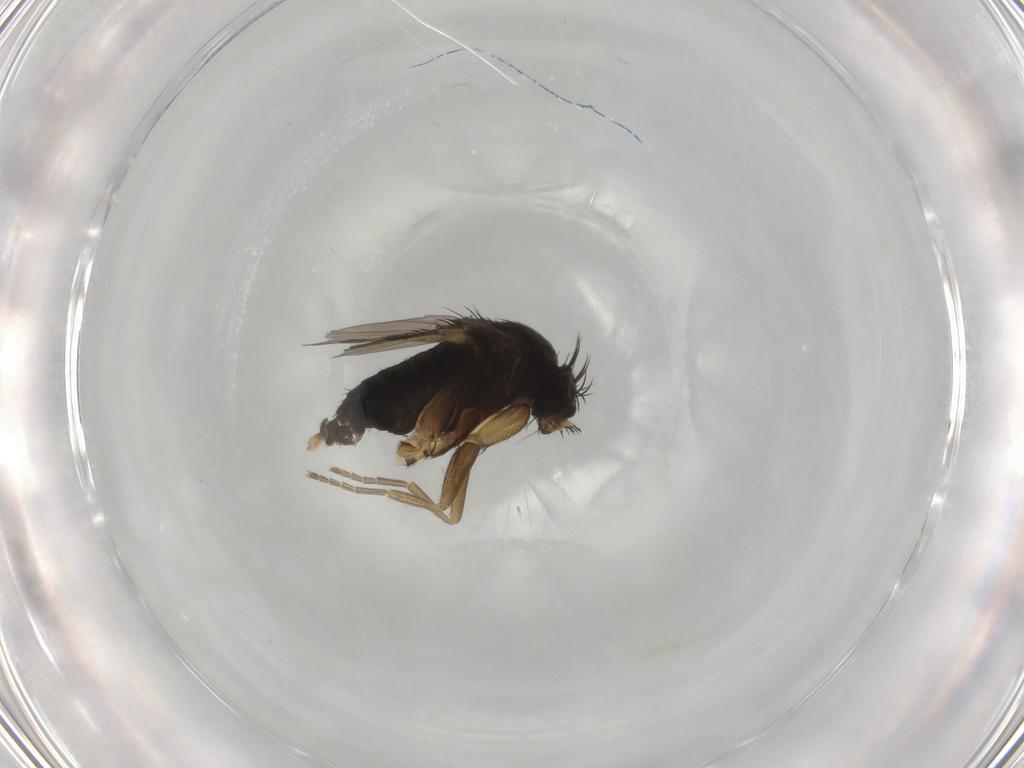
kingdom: Animalia
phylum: Arthropoda
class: Insecta
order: Diptera
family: Phoridae
